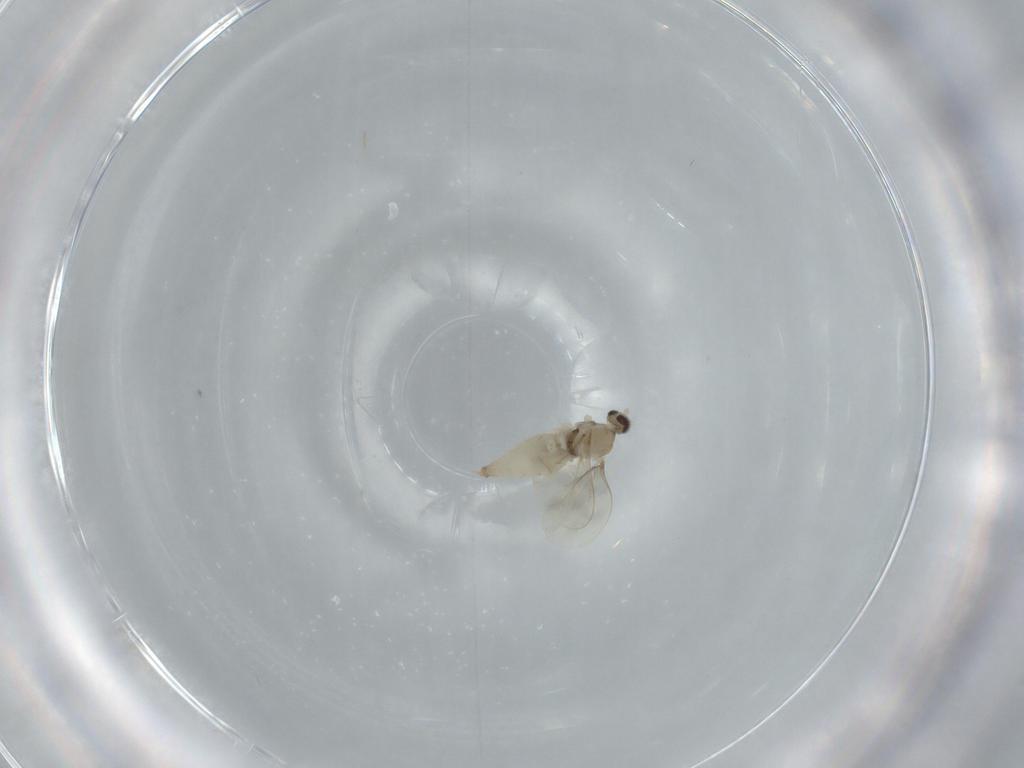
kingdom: Animalia
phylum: Arthropoda
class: Insecta
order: Diptera
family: Cecidomyiidae
